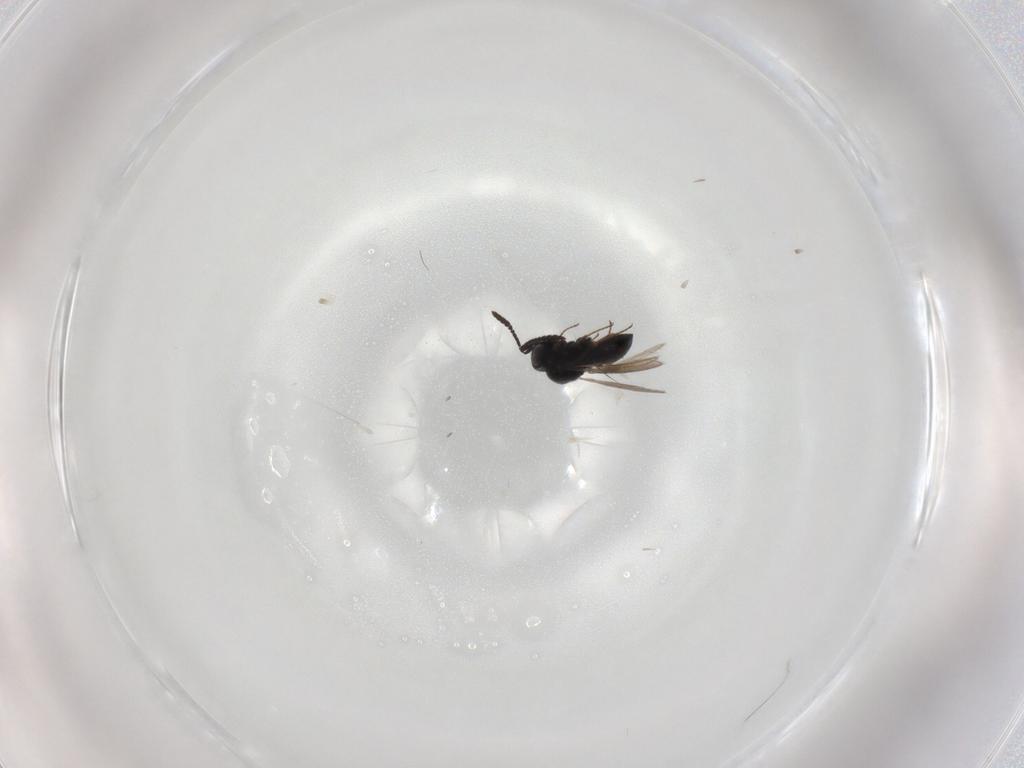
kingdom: Animalia
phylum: Arthropoda
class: Insecta
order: Hymenoptera
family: Scelionidae
